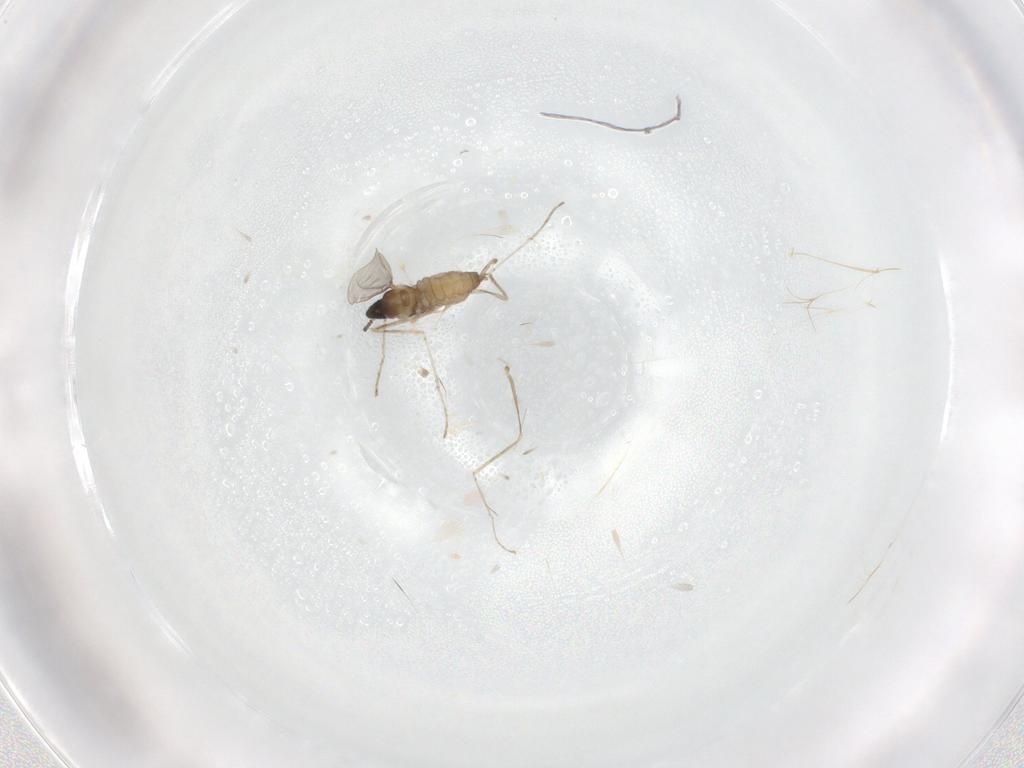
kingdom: Animalia
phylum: Arthropoda
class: Insecta
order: Diptera
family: Cecidomyiidae
